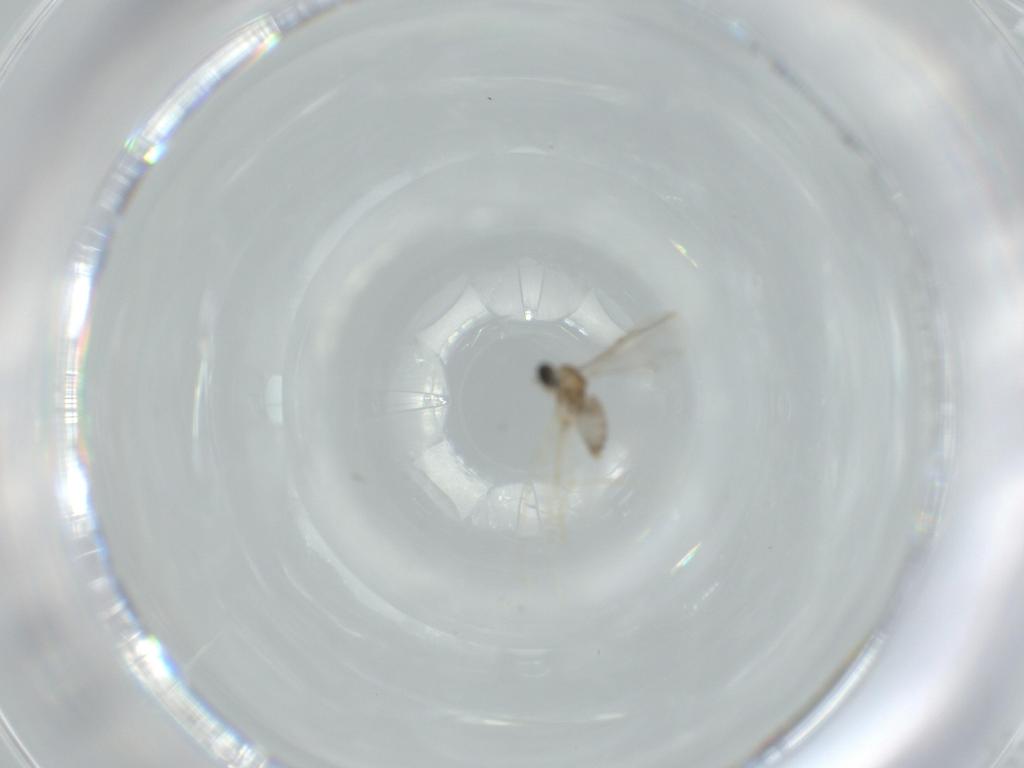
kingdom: Animalia
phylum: Arthropoda
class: Insecta
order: Diptera
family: Cecidomyiidae
